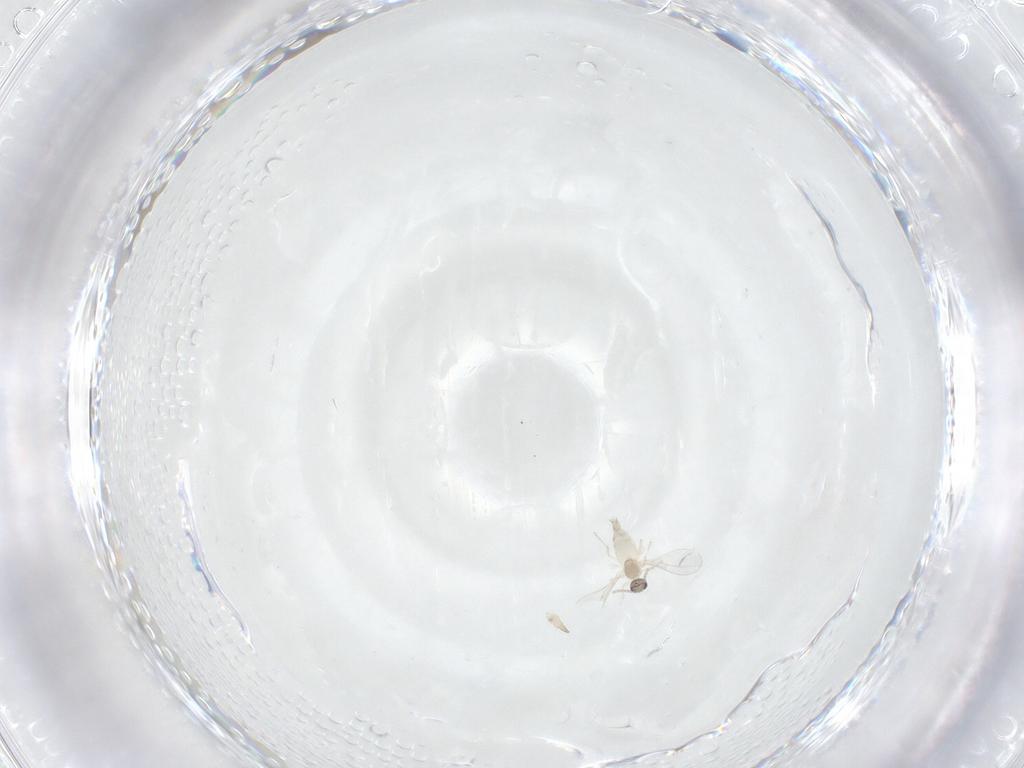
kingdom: Animalia
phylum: Arthropoda
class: Insecta
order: Diptera
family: Cecidomyiidae
